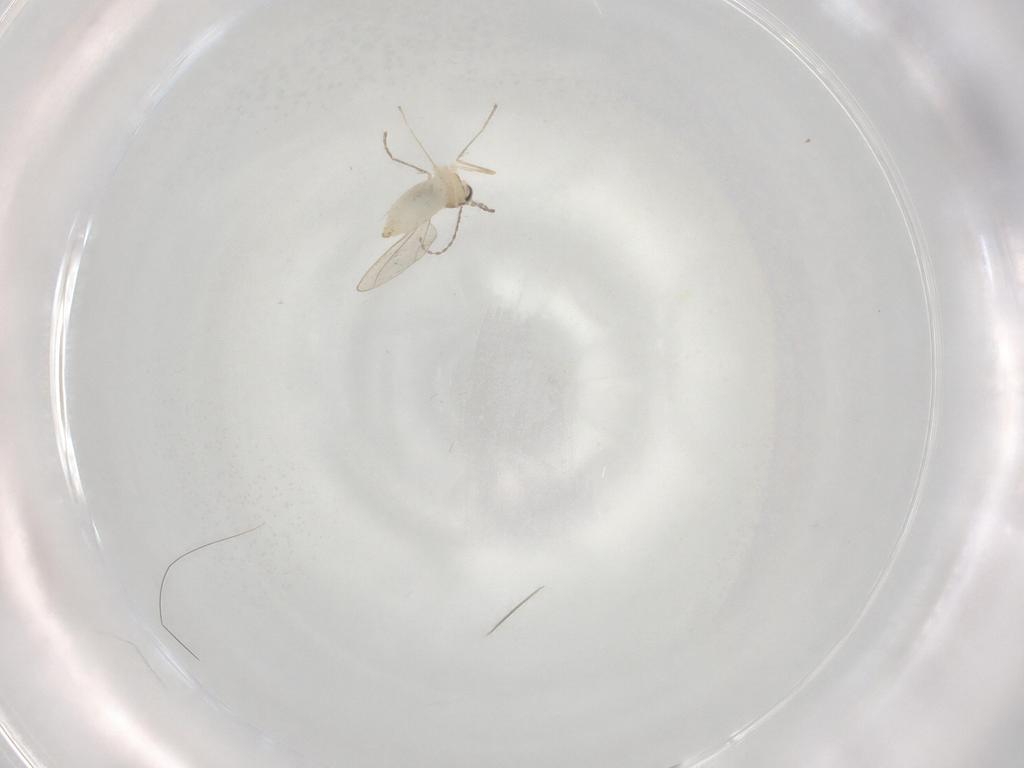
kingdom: Animalia
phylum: Arthropoda
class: Insecta
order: Diptera
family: Cecidomyiidae
